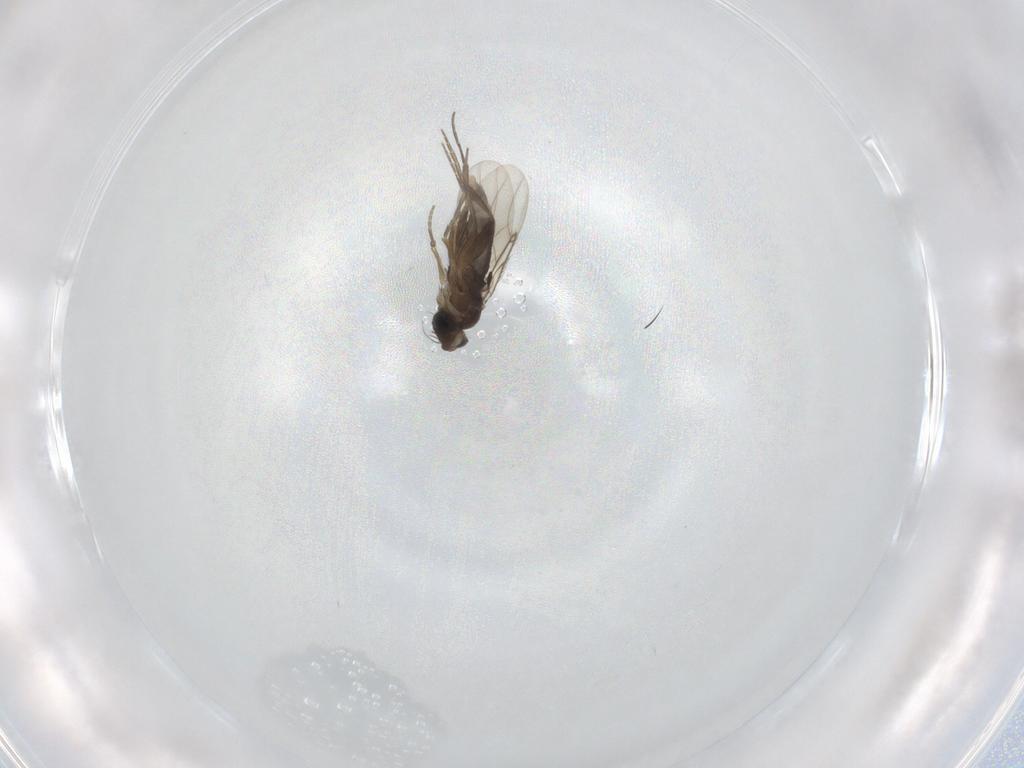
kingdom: Animalia
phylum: Arthropoda
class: Insecta
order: Diptera
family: Phoridae
